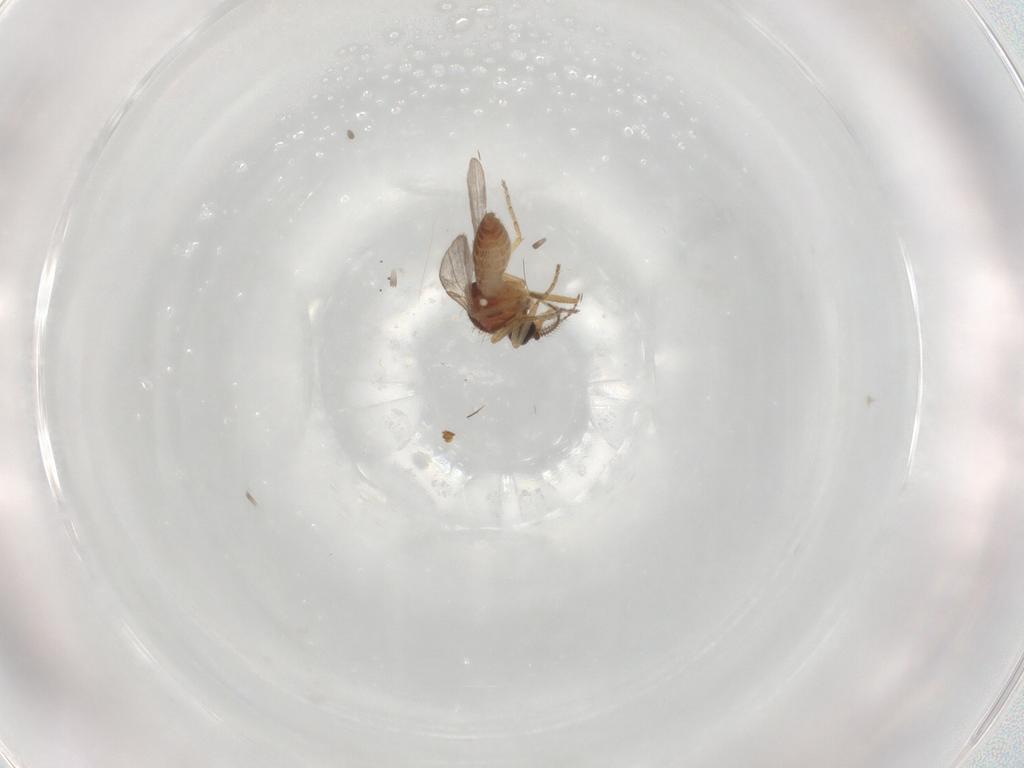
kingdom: Animalia
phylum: Arthropoda
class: Insecta
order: Diptera
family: Ceratopogonidae
